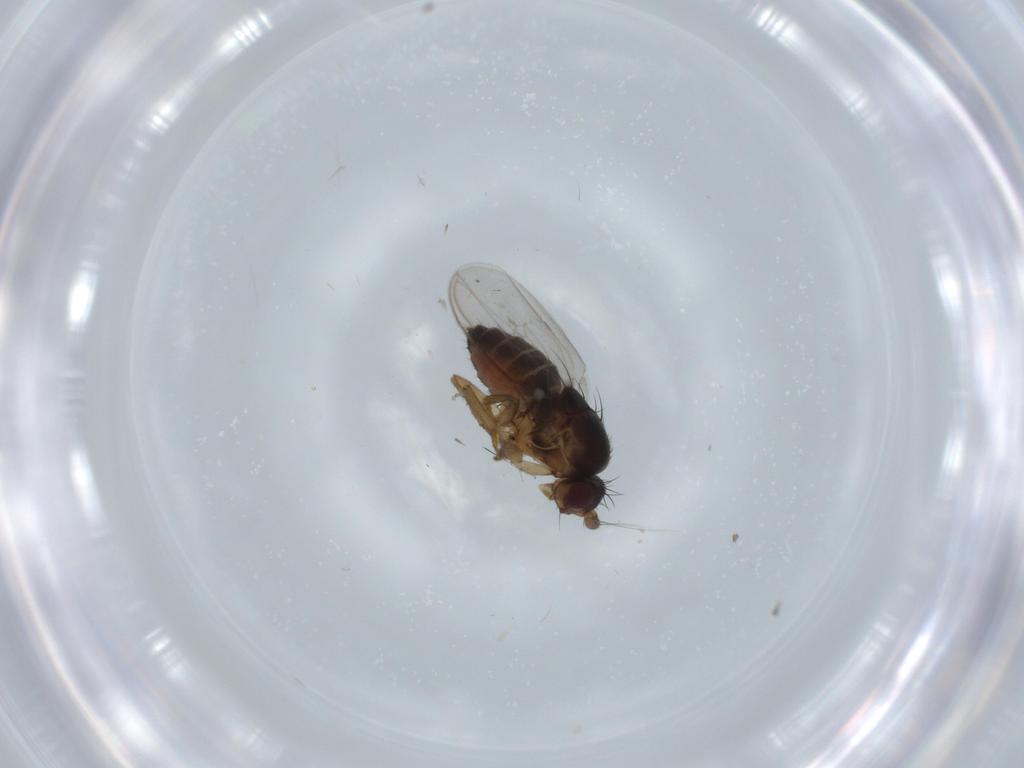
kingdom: Animalia
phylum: Arthropoda
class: Insecta
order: Diptera
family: Sphaeroceridae
